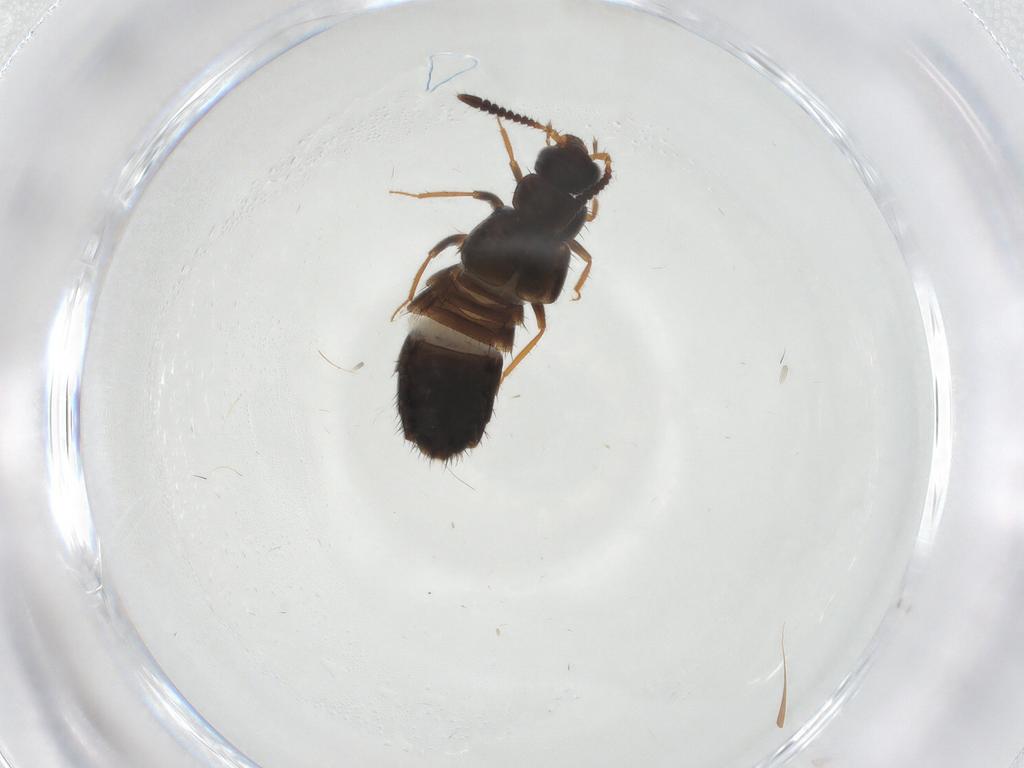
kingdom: Animalia
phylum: Arthropoda
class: Insecta
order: Coleoptera
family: Staphylinidae
